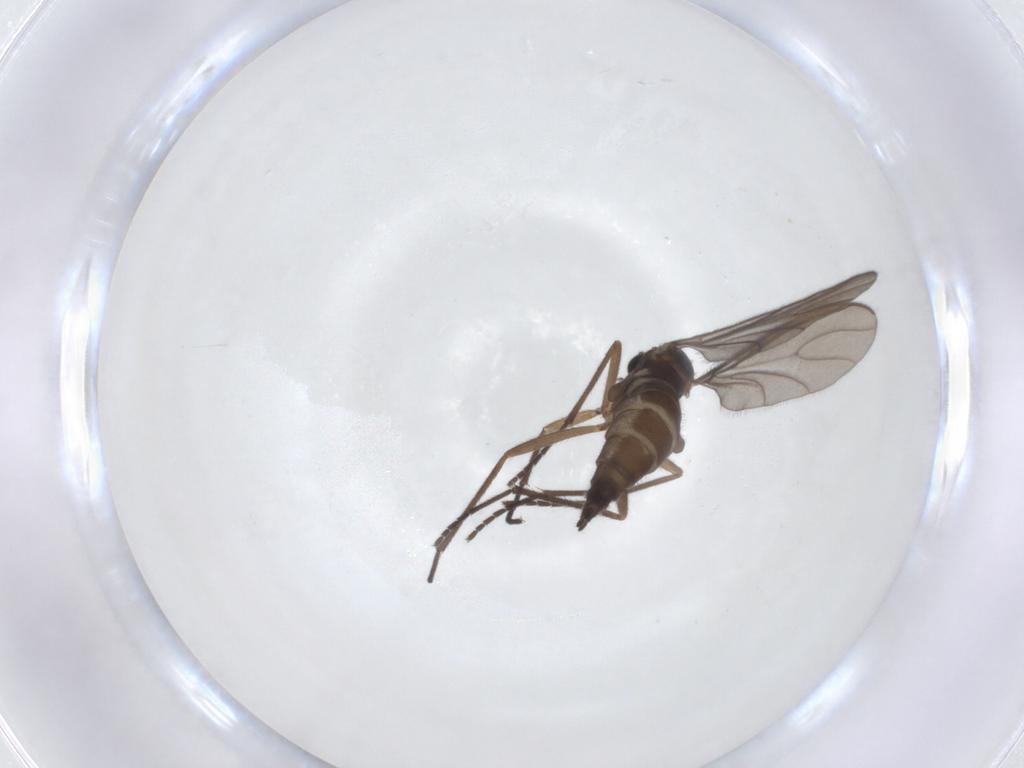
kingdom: Animalia
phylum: Arthropoda
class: Insecta
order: Diptera
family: Sciaridae
